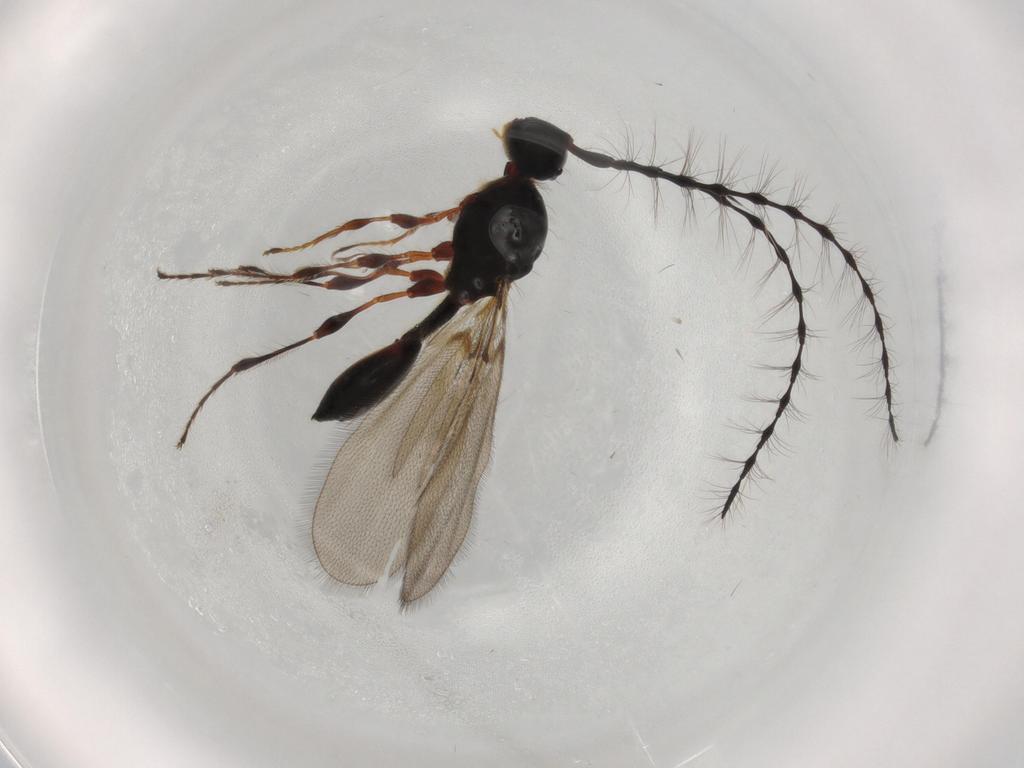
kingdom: Animalia
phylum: Arthropoda
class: Insecta
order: Hymenoptera
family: Diapriidae
